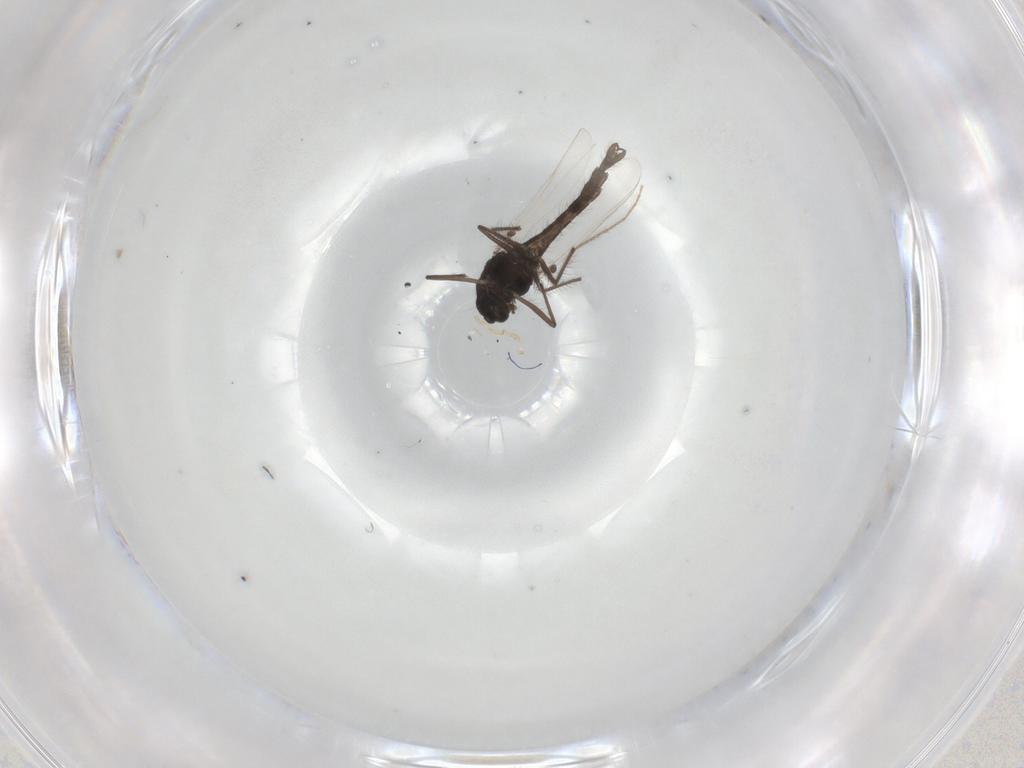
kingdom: Animalia
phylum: Arthropoda
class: Insecta
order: Diptera
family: Chironomidae
